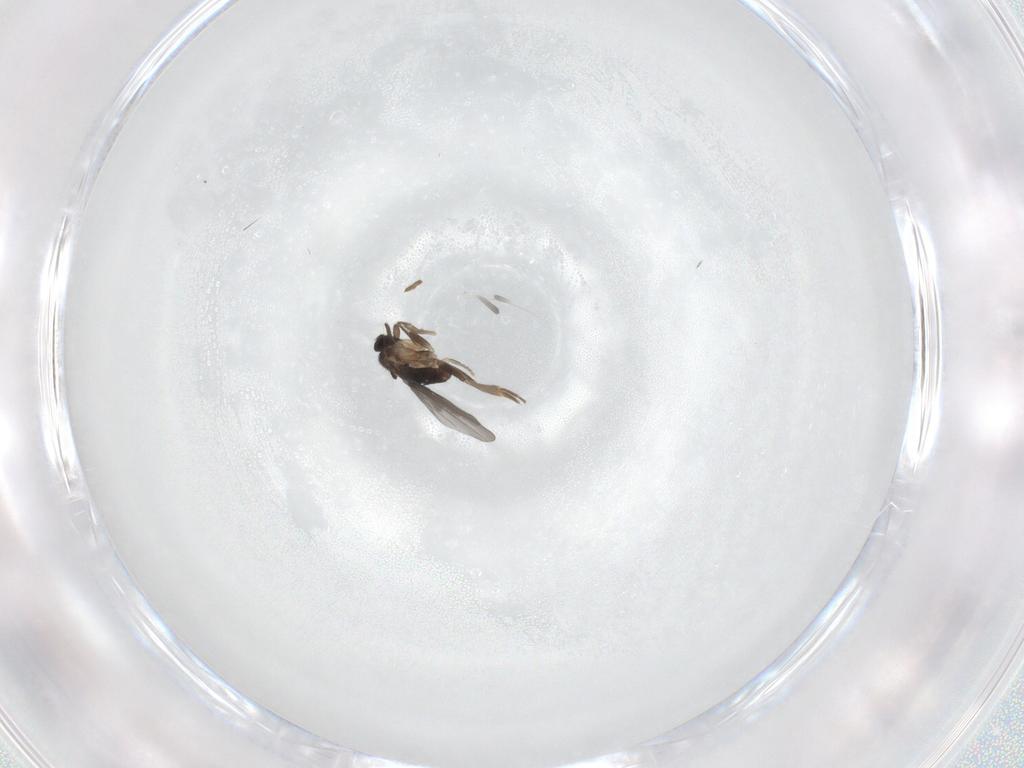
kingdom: Animalia
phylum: Arthropoda
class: Insecta
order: Diptera
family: Chironomidae
